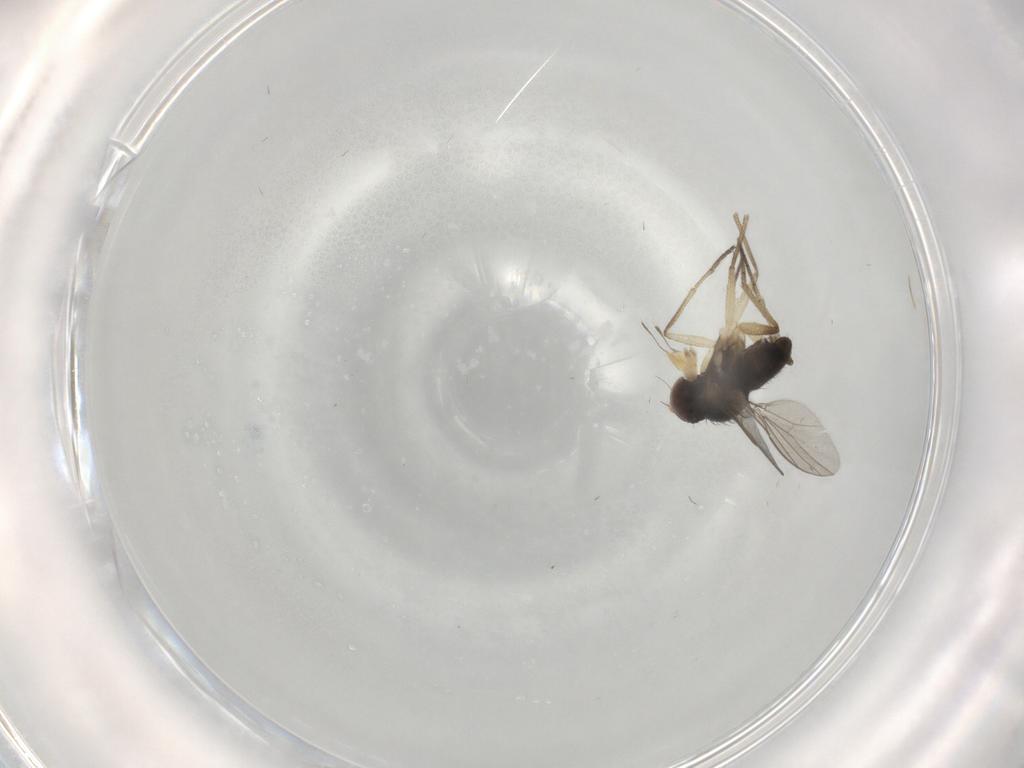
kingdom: Animalia
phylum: Arthropoda
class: Insecta
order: Diptera
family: Dolichopodidae
